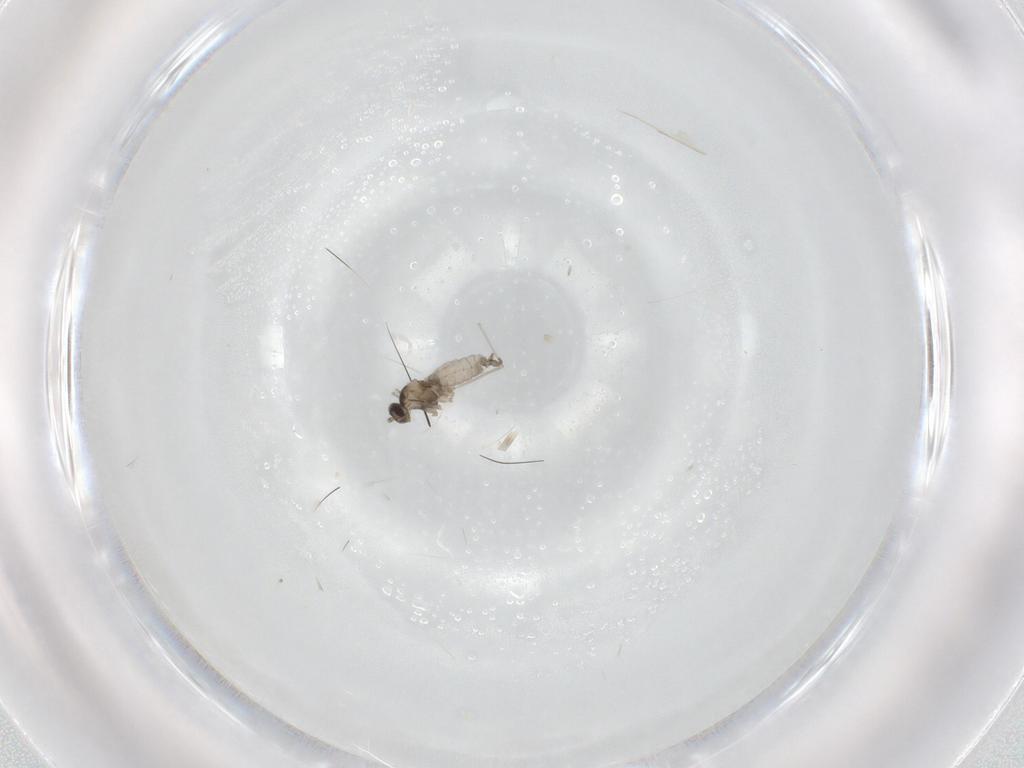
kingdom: Animalia
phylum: Arthropoda
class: Insecta
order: Diptera
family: Cecidomyiidae
